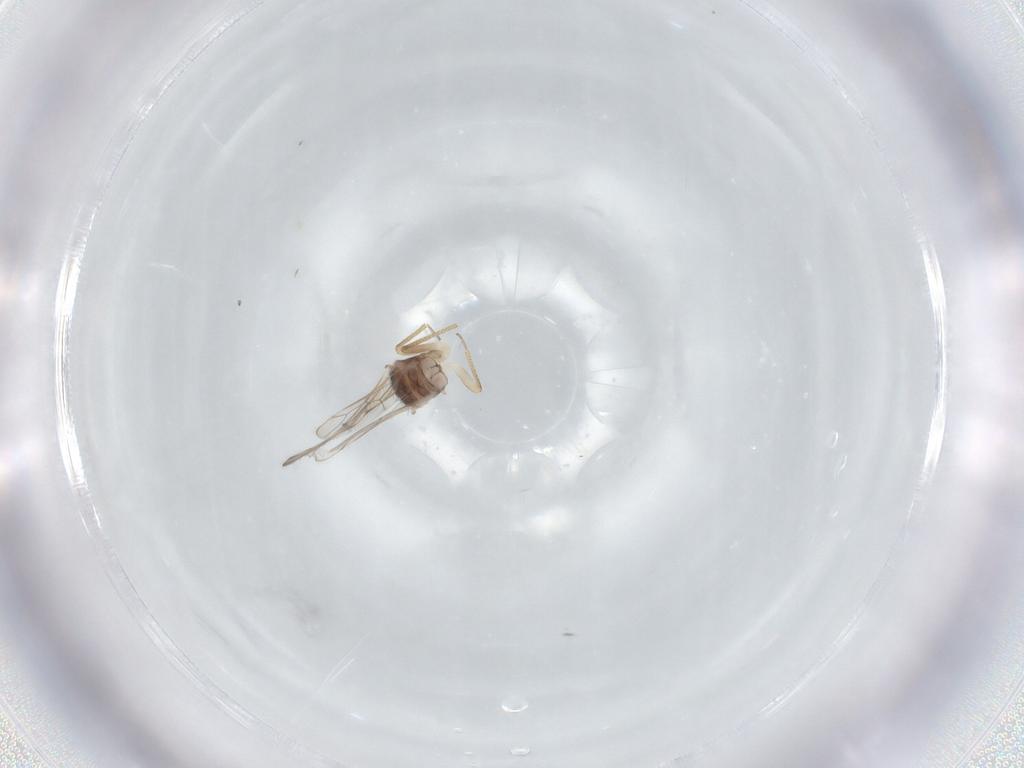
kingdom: Animalia
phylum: Arthropoda
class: Insecta
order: Diptera
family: Agromyzidae
